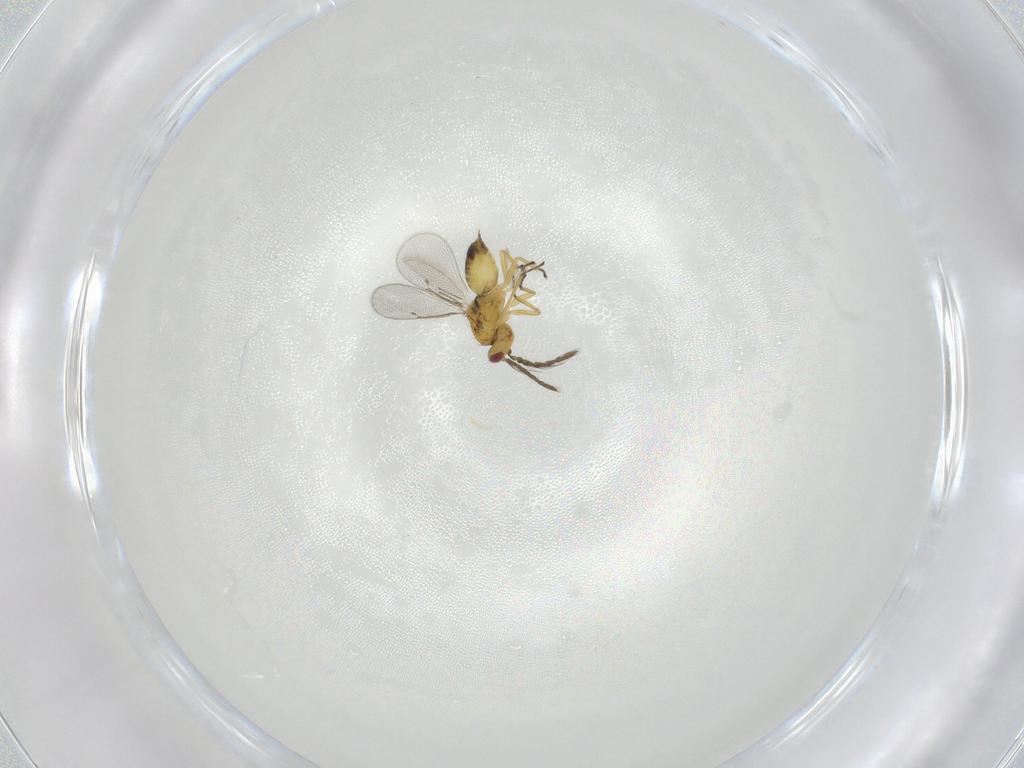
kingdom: Animalia
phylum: Arthropoda
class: Insecta
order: Hymenoptera
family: Eulophidae
